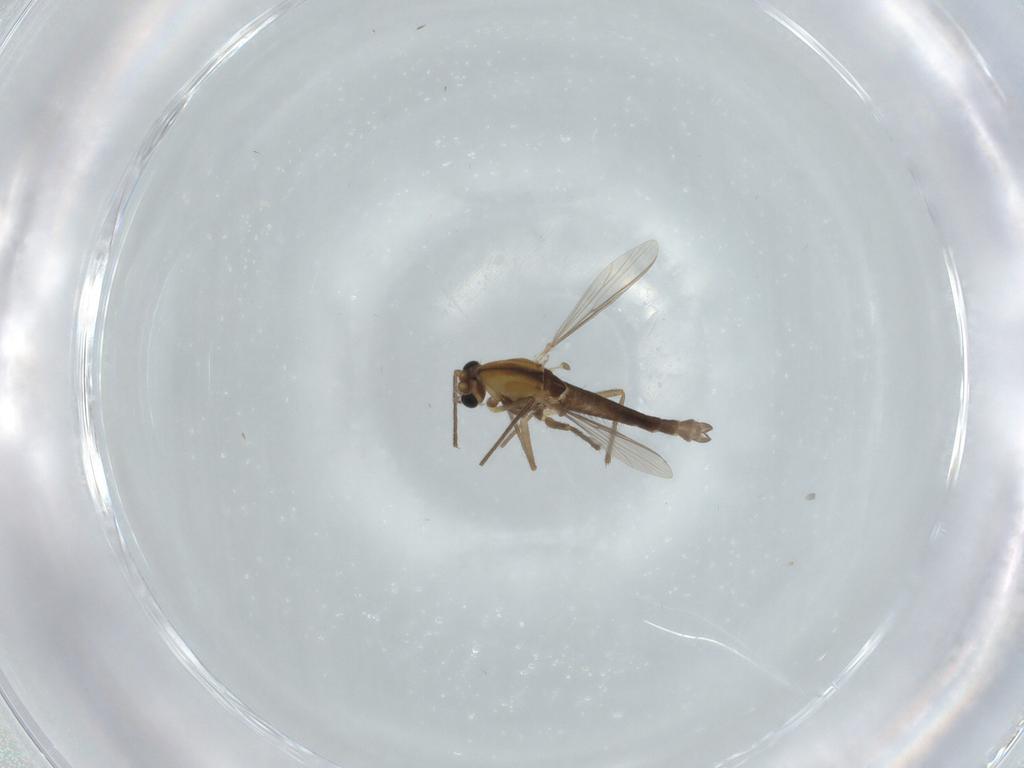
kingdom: Animalia
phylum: Arthropoda
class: Insecta
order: Diptera
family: Chironomidae
